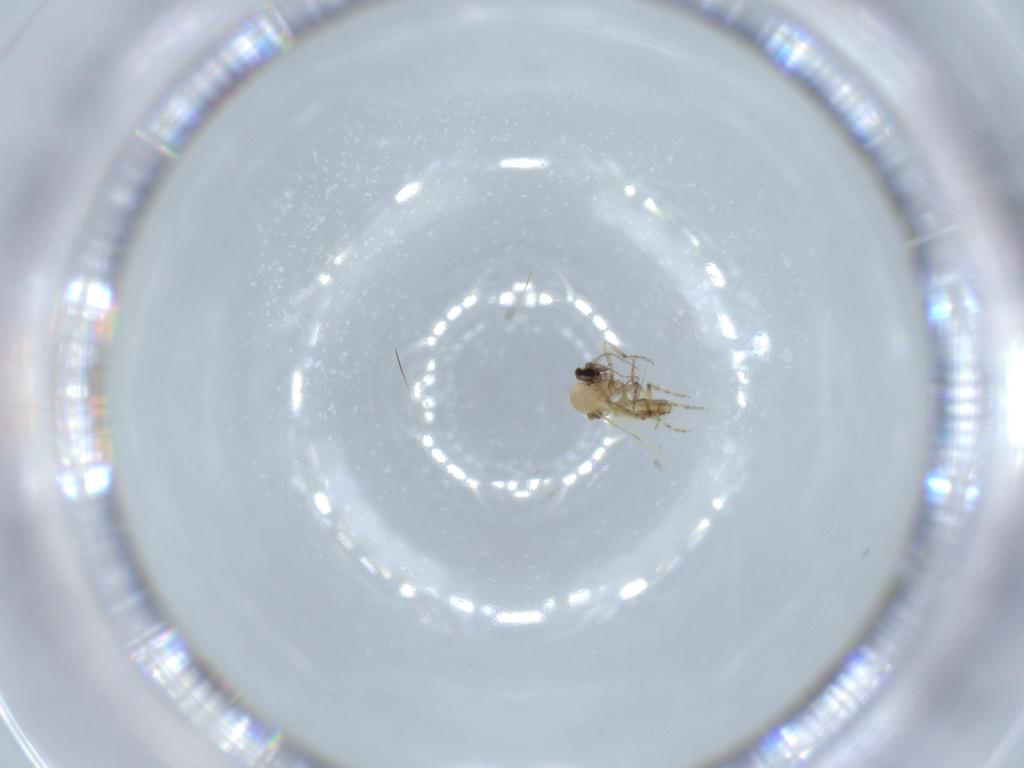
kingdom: Animalia
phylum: Arthropoda
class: Insecta
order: Diptera
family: Ceratopogonidae
